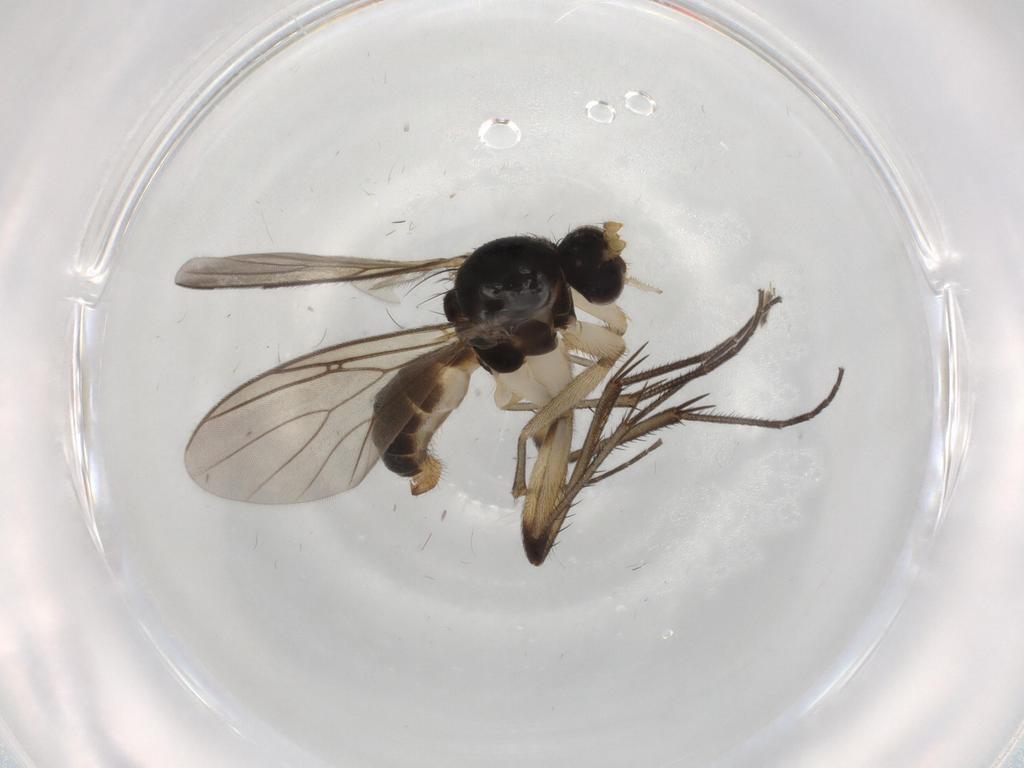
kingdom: Animalia
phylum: Arthropoda
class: Insecta
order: Diptera
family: Cecidomyiidae
